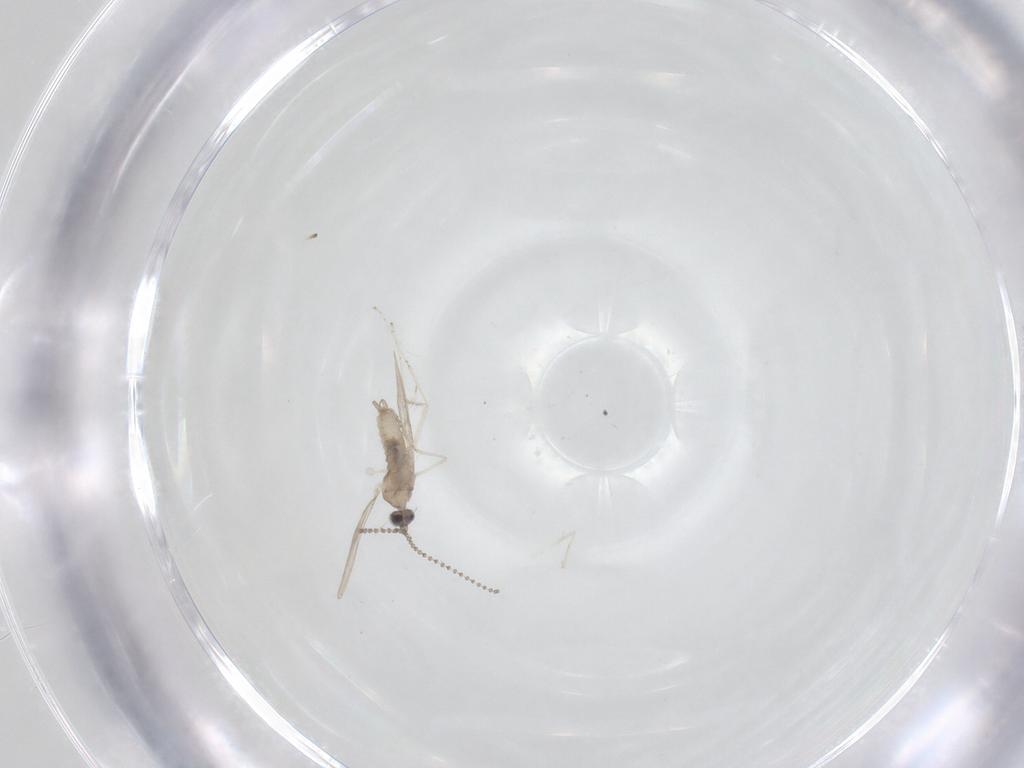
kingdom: Animalia
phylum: Arthropoda
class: Insecta
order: Diptera
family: Cecidomyiidae
